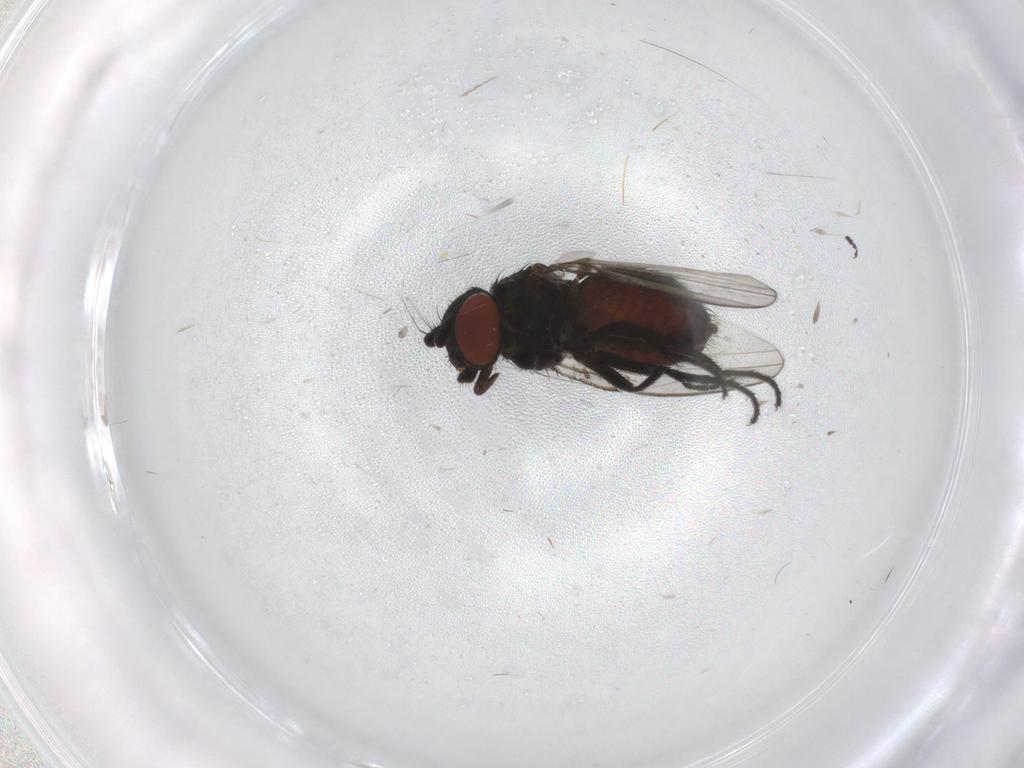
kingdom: Animalia
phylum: Arthropoda
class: Insecta
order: Diptera
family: Milichiidae
